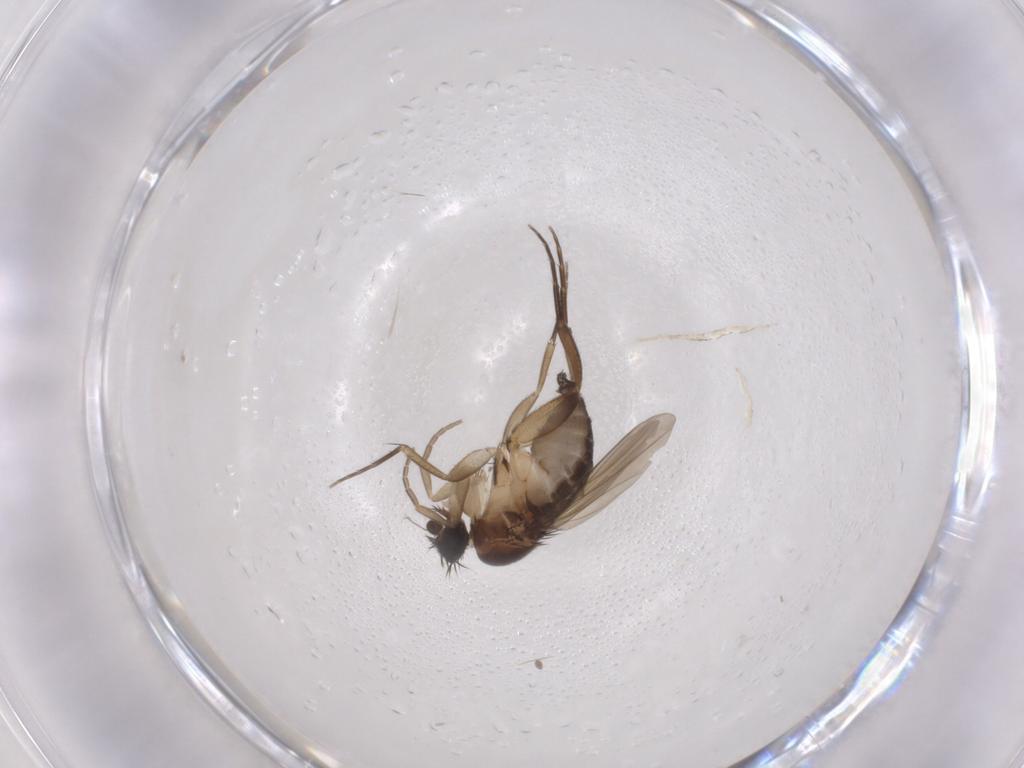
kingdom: Animalia
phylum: Arthropoda
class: Insecta
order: Diptera
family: Phoridae
